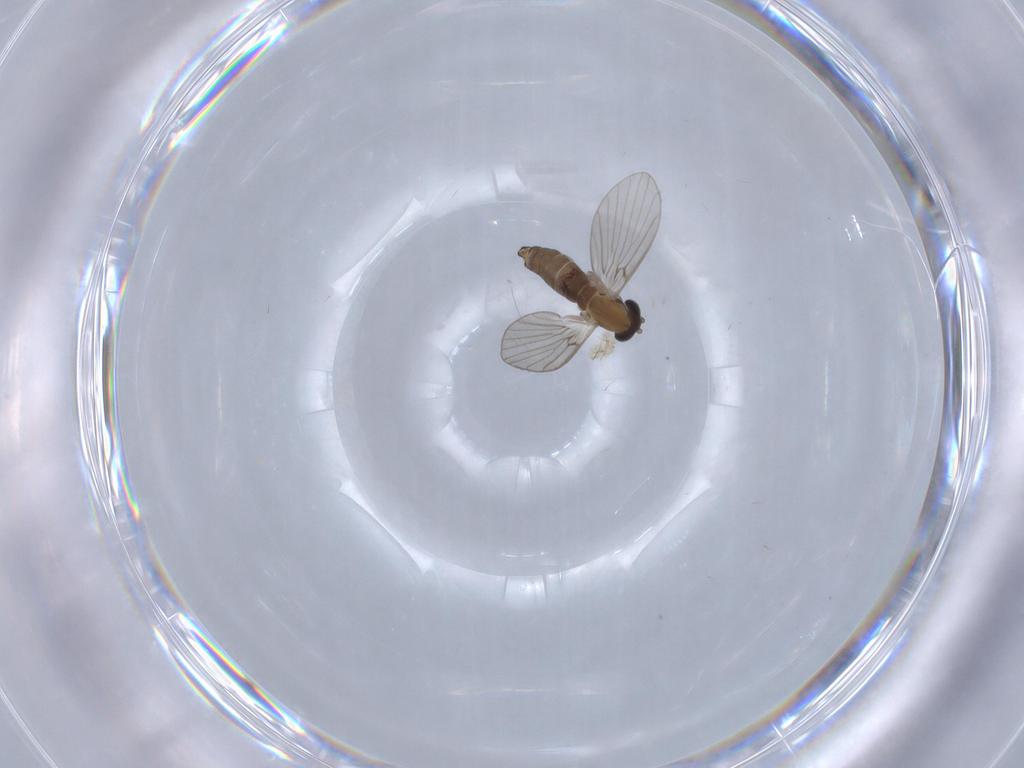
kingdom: Animalia
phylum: Arthropoda
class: Insecta
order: Diptera
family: Psychodidae
